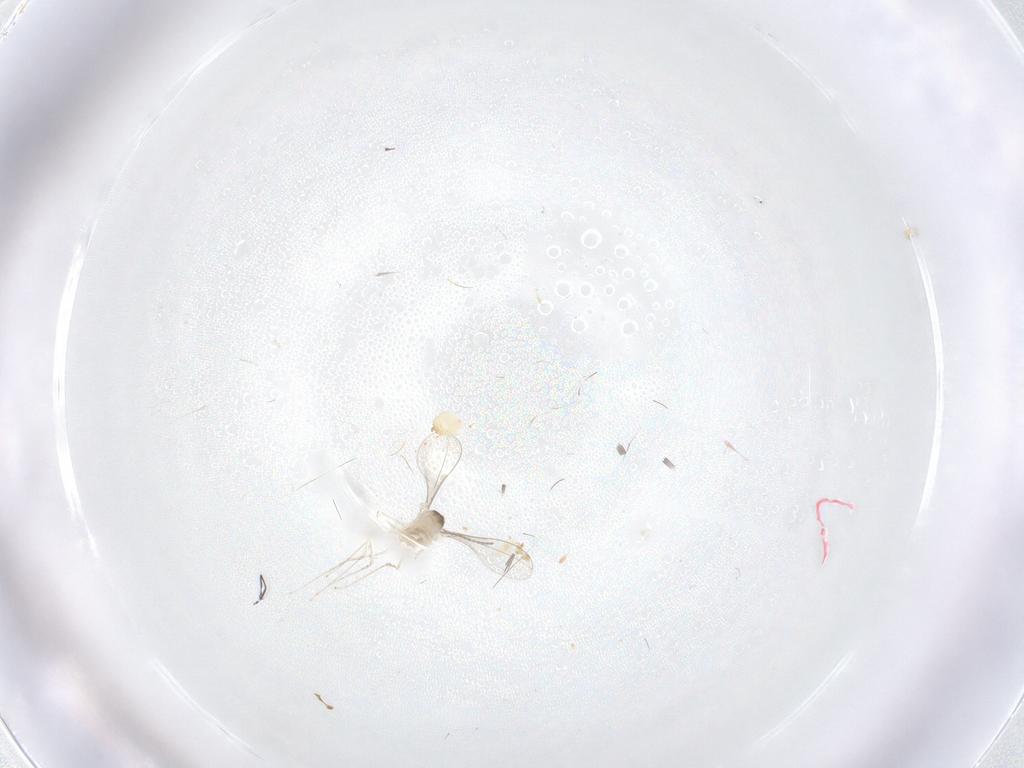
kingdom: Animalia
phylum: Arthropoda
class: Insecta
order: Diptera
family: Cecidomyiidae
